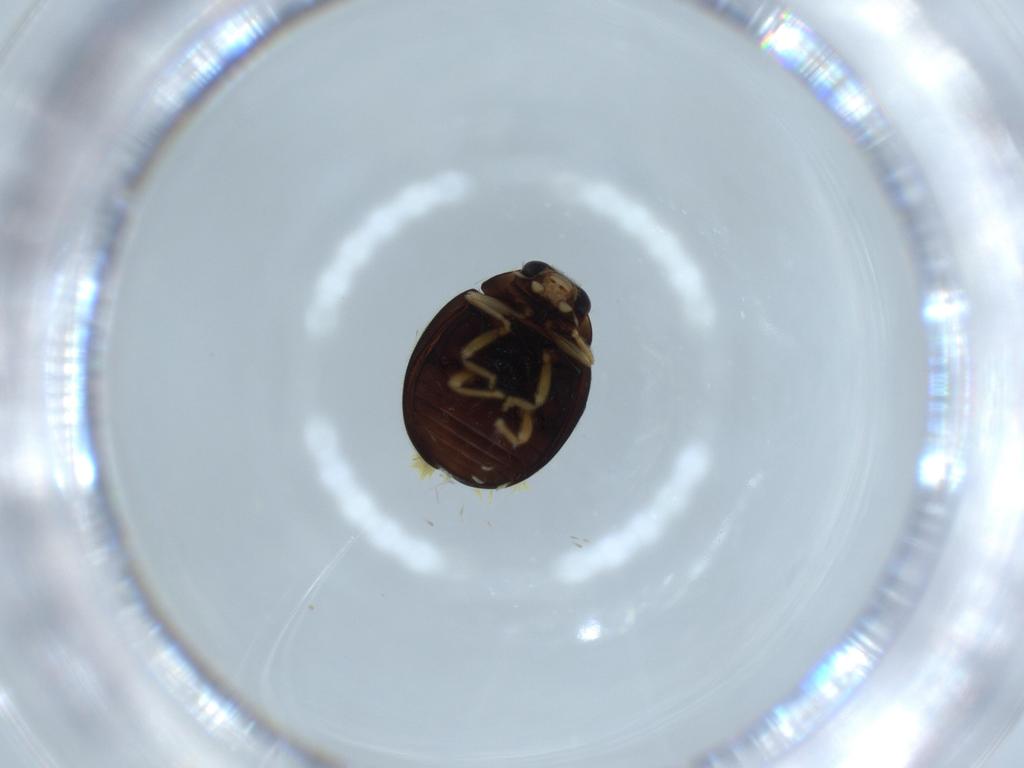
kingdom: Animalia
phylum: Arthropoda
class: Insecta
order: Coleoptera
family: Coccinellidae
